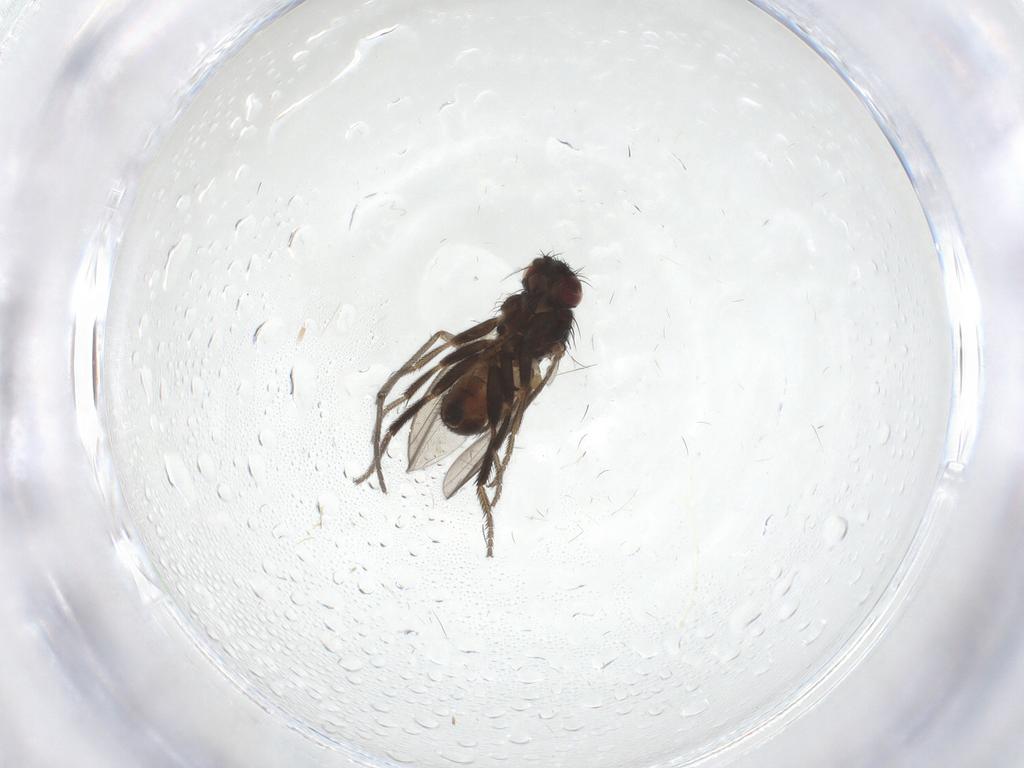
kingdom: Animalia
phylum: Arthropoda
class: Insecta
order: Diptera
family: Milichiidae
